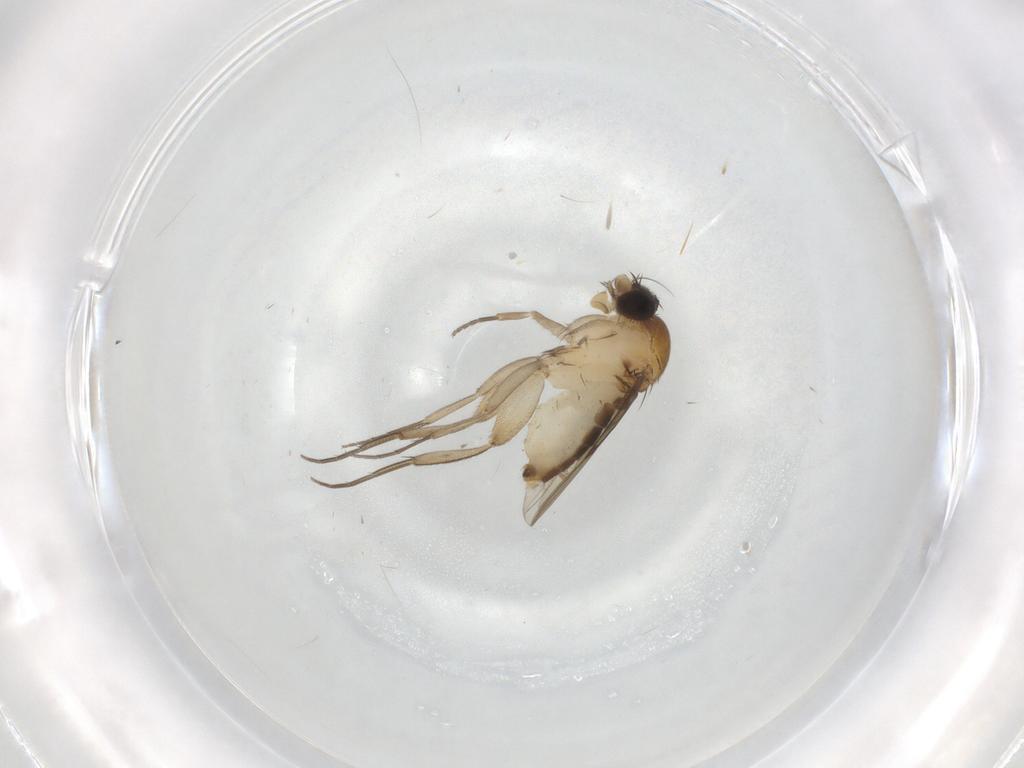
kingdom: Animalia
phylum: Arthropoda
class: Insecta
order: Diptera
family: Phoridae
